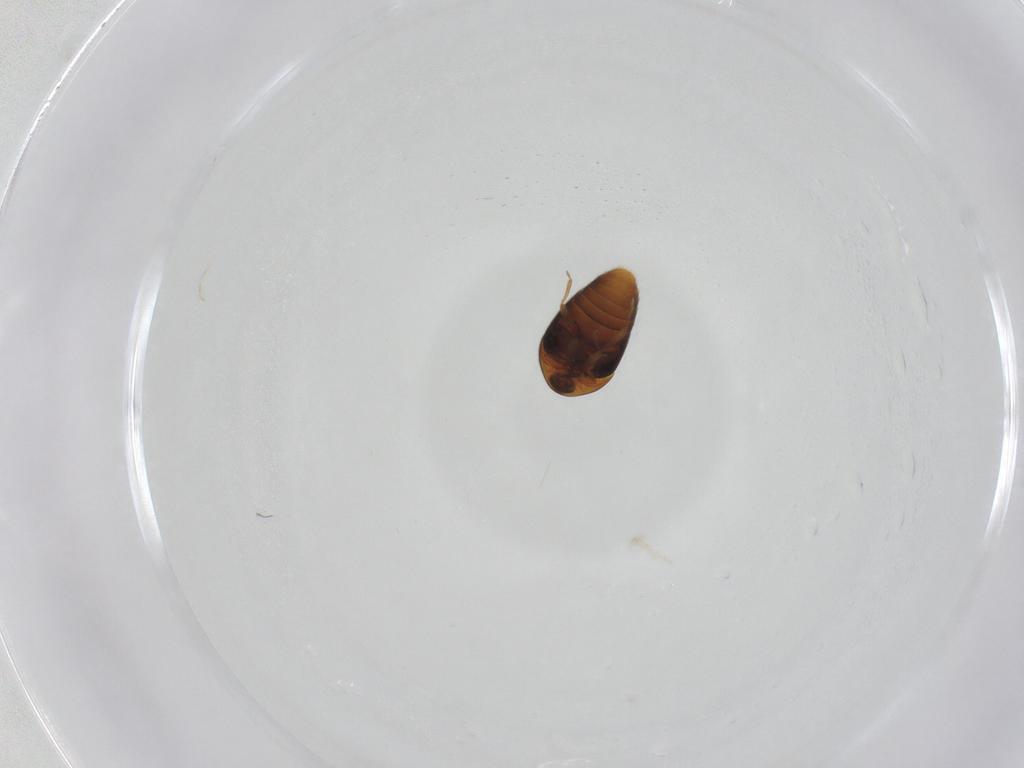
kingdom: Animalia
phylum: Arthropoda
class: Insecta
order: Coleoptera
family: Corylophidae
